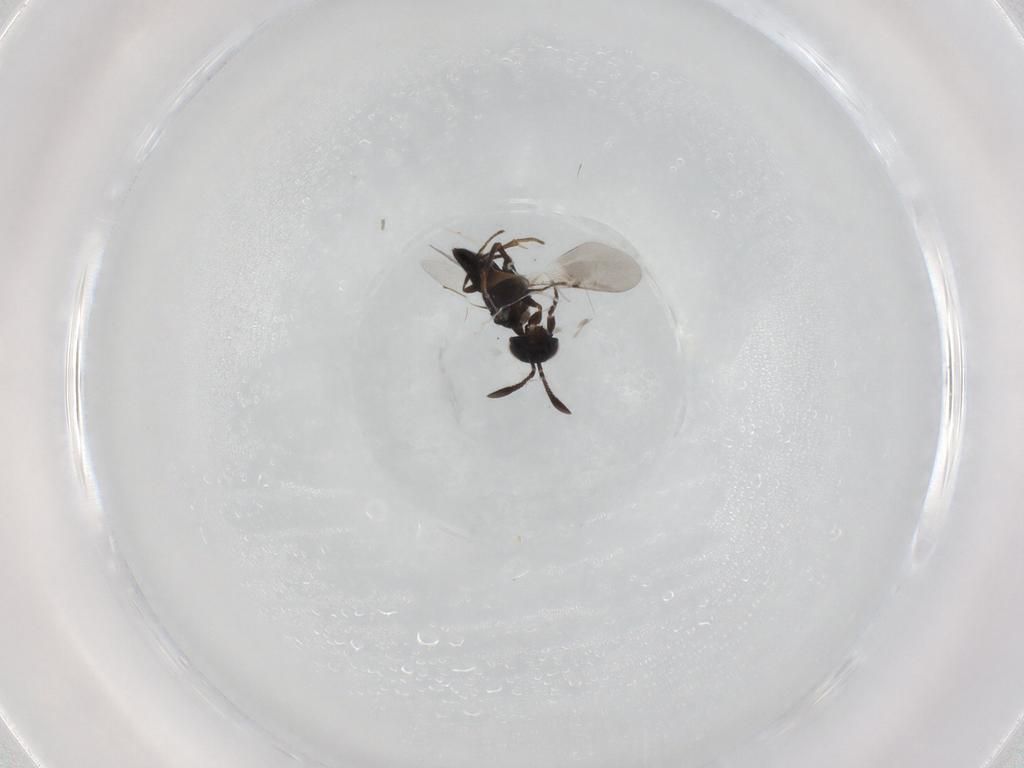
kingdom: Animalia
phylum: Arthropoda
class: Insecta
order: Hymenoptera
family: Encyrtidae
